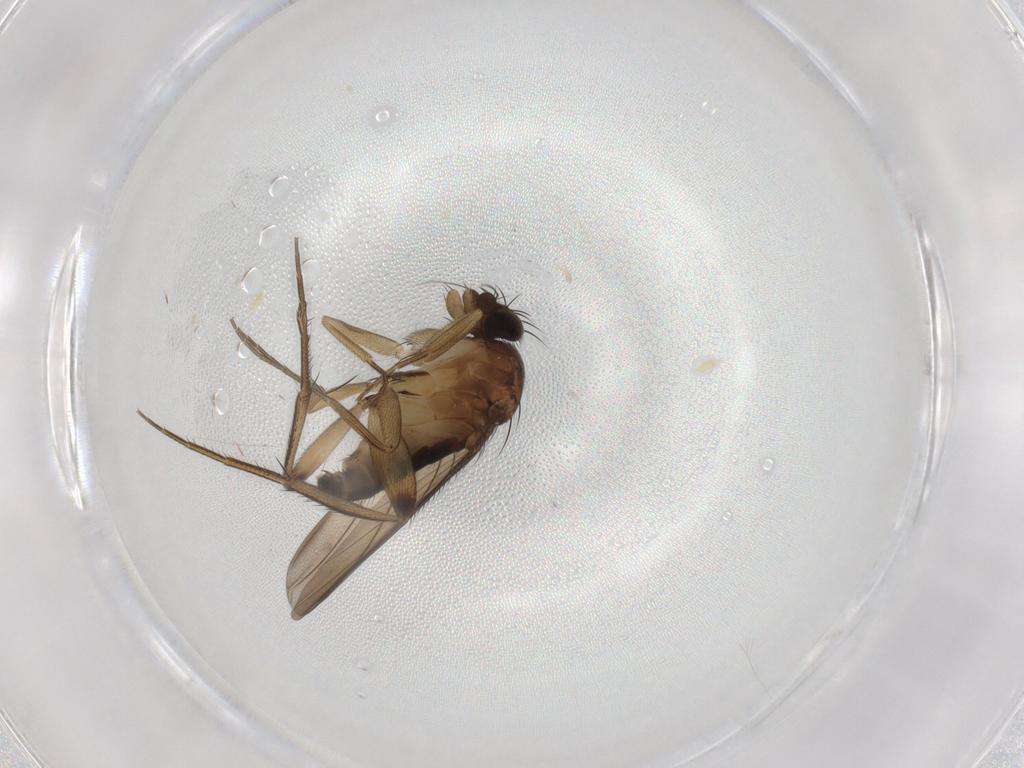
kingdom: Animalia
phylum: Arthropoda
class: Insecta
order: Diptera
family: Phoridae
